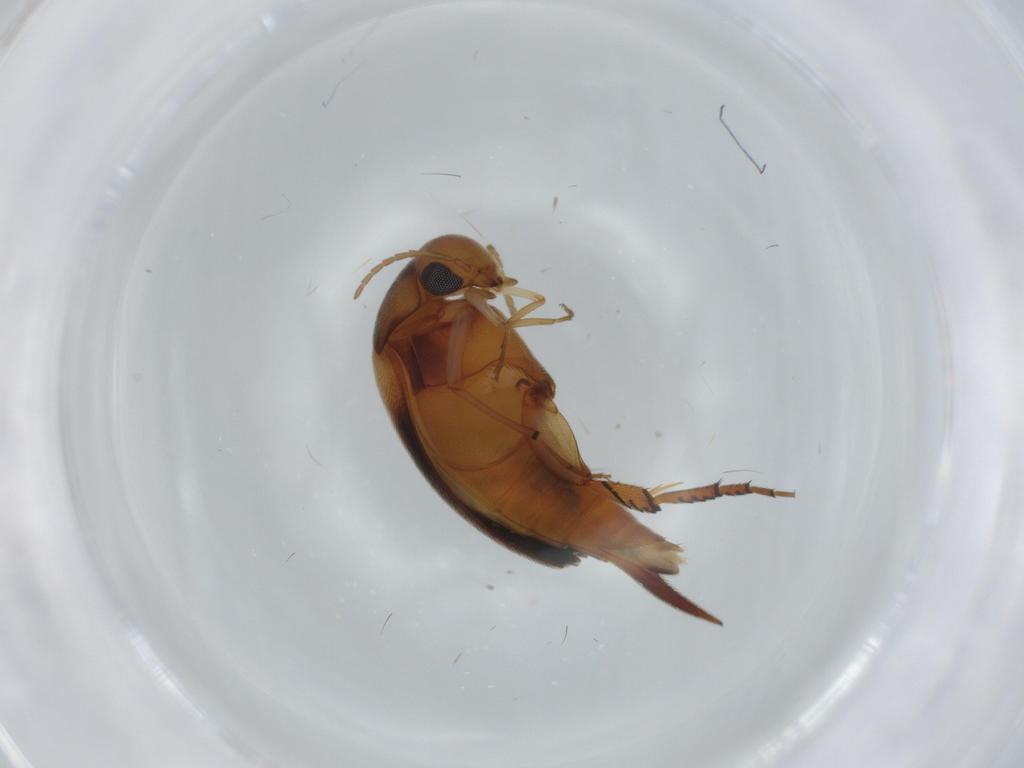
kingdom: Animalia
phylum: Arthropoda
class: Insecta
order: Coleoptera
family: Mordellidae
